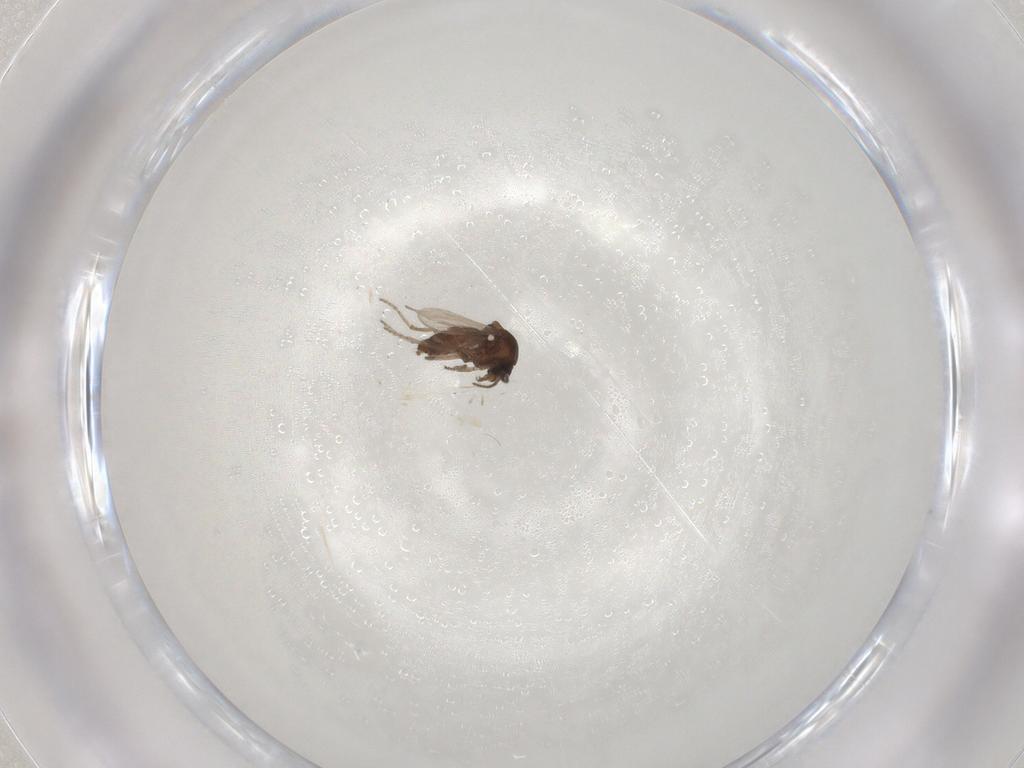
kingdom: Animalia
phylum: Arthropoda
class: Insecta
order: Diptera
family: Ceratopogonidae
